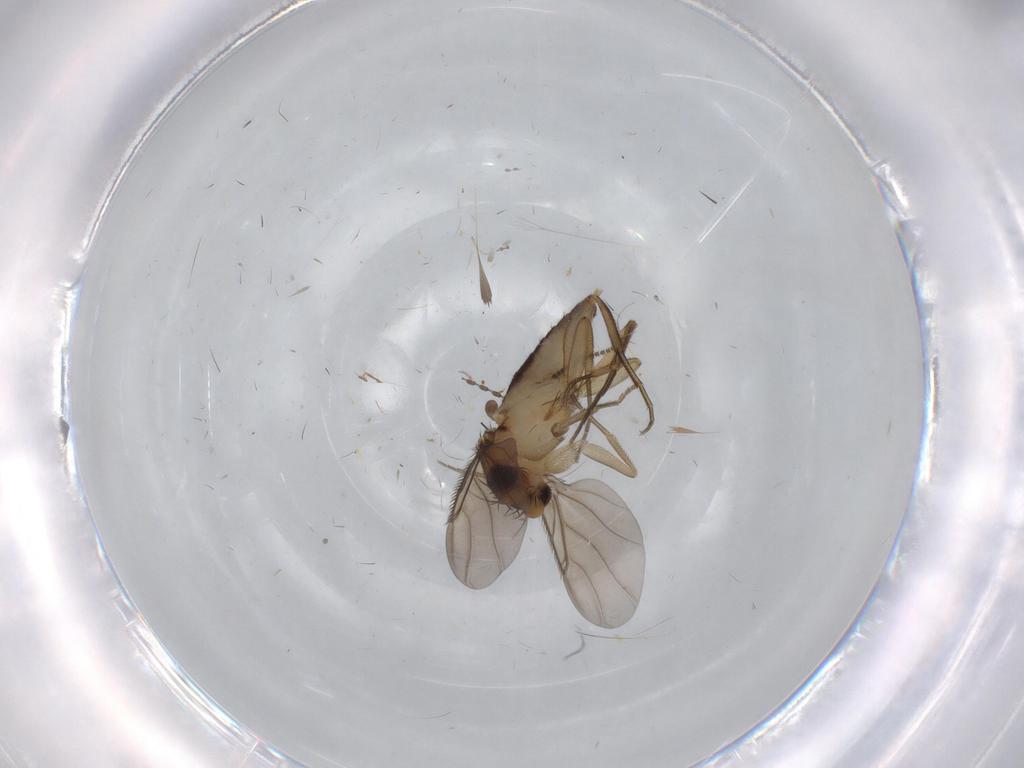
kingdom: Animalia
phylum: Arthropoda
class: Insecta
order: Diptera
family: Phoridae
